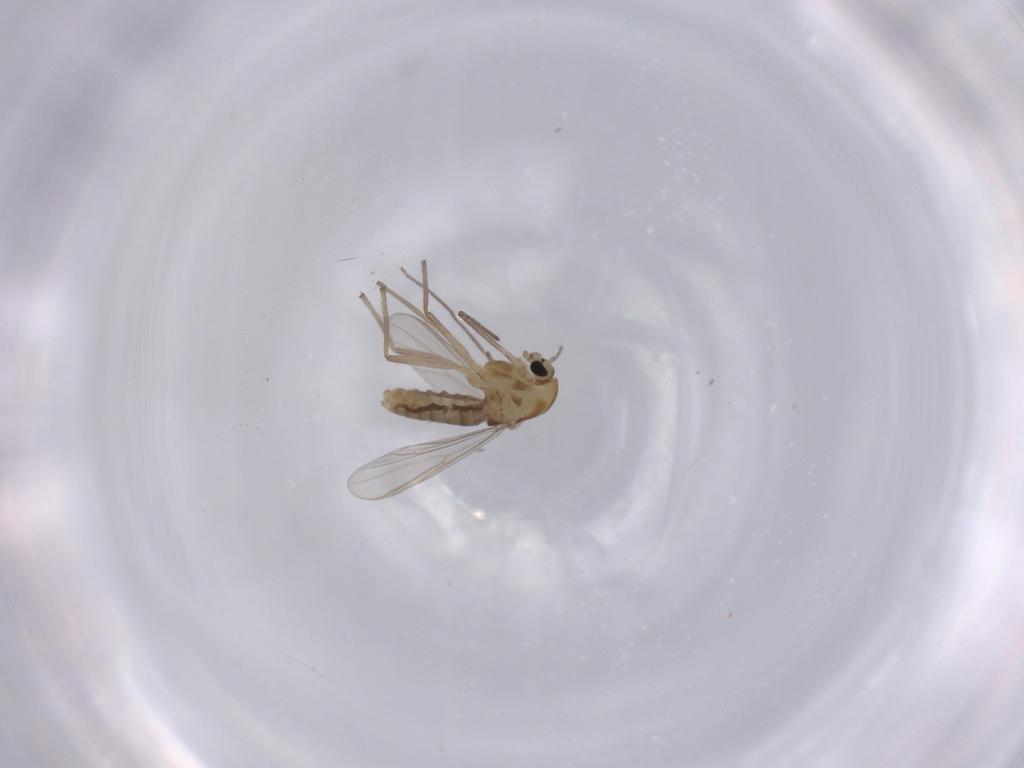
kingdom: Animalia
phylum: Arthropoda
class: Insecta
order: Diptera
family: Chironomidae
